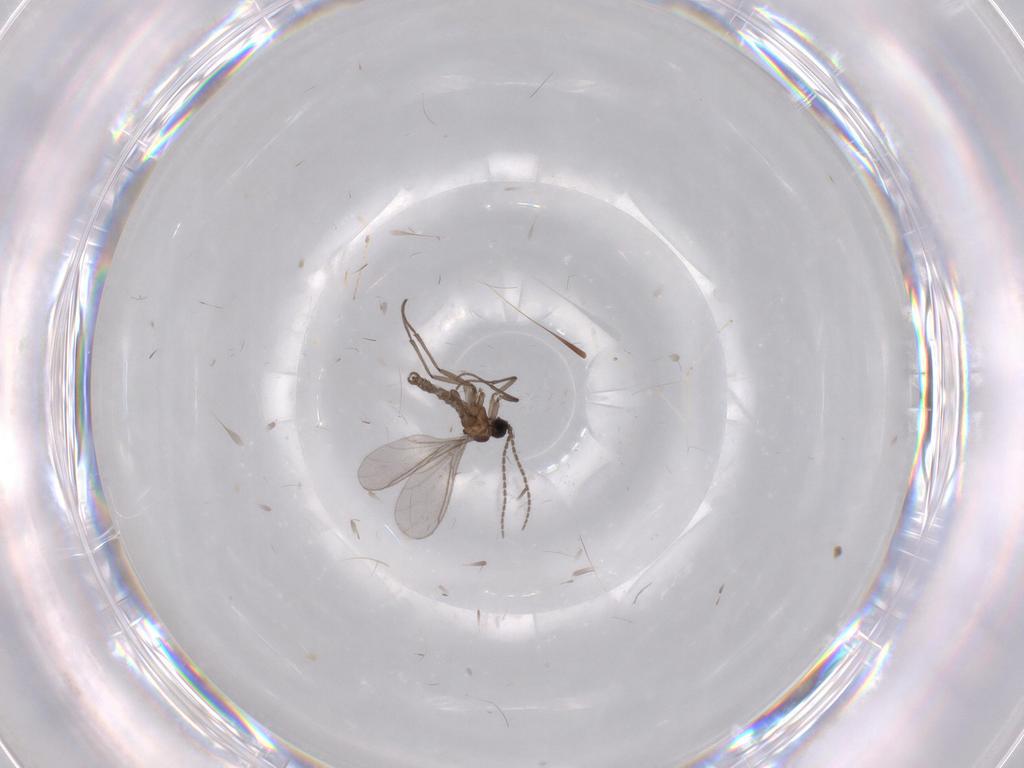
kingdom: Animalia
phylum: Arthropoda
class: Insecta
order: Diptera
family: Sciaridae
